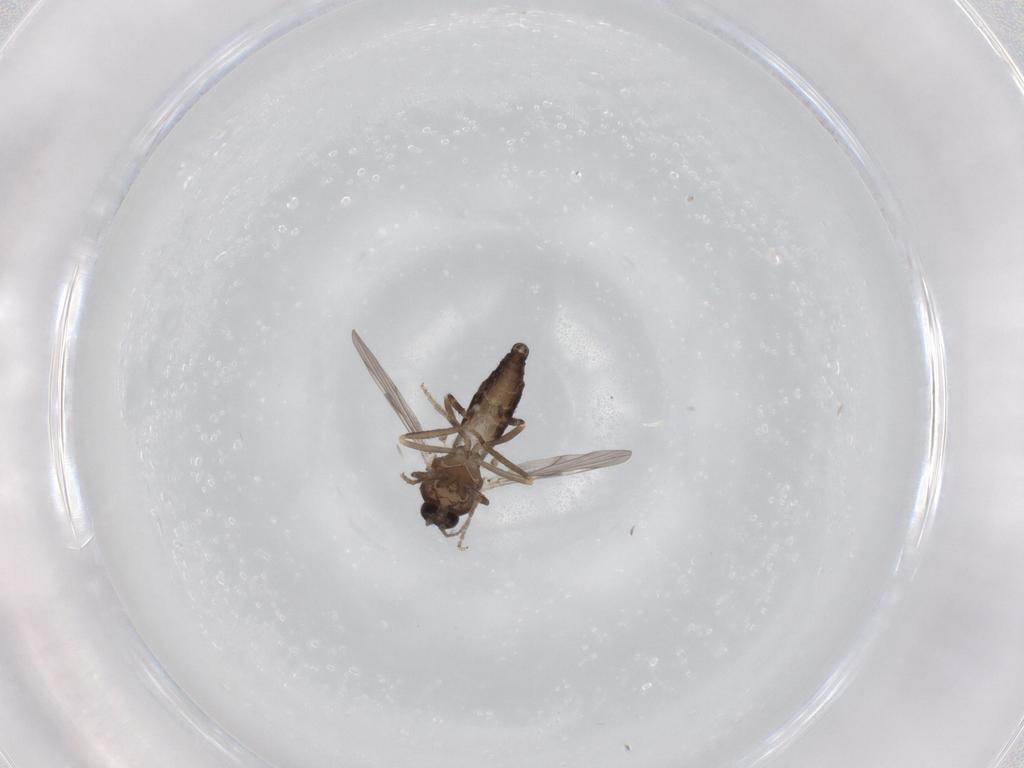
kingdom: Animalia
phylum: Arthropoda
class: Insecta
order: Diptera
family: Ceratopogonidae
